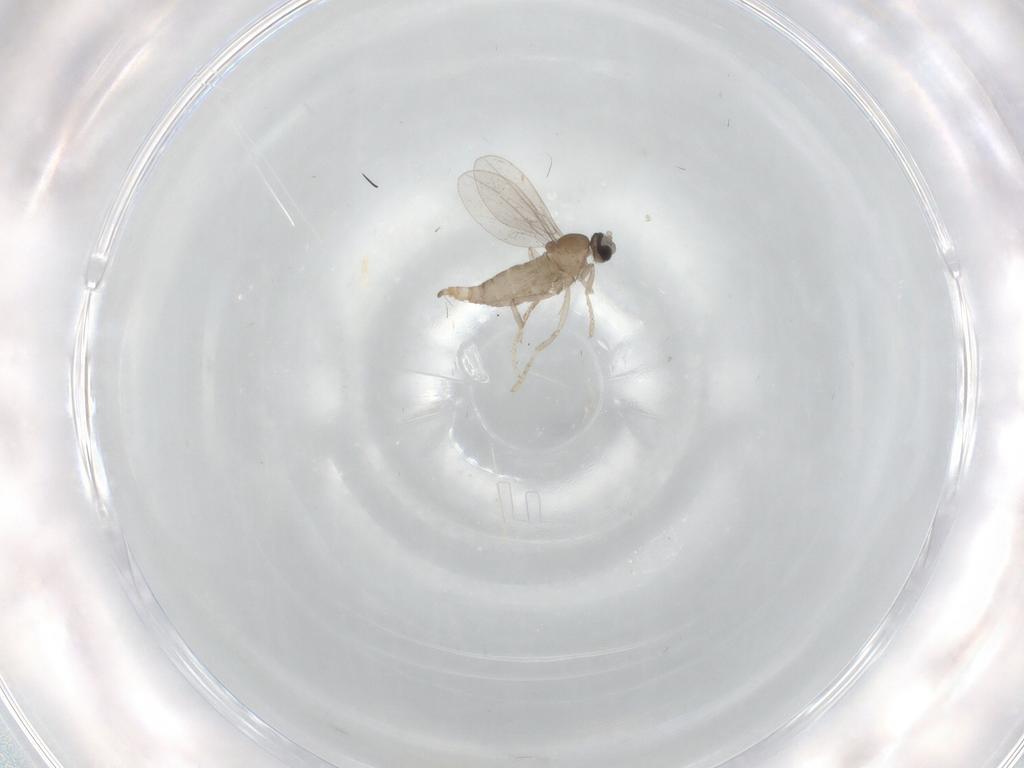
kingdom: Animalia
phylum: Arthropoda
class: Insecta
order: Diptera
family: Cecidomyiidae
